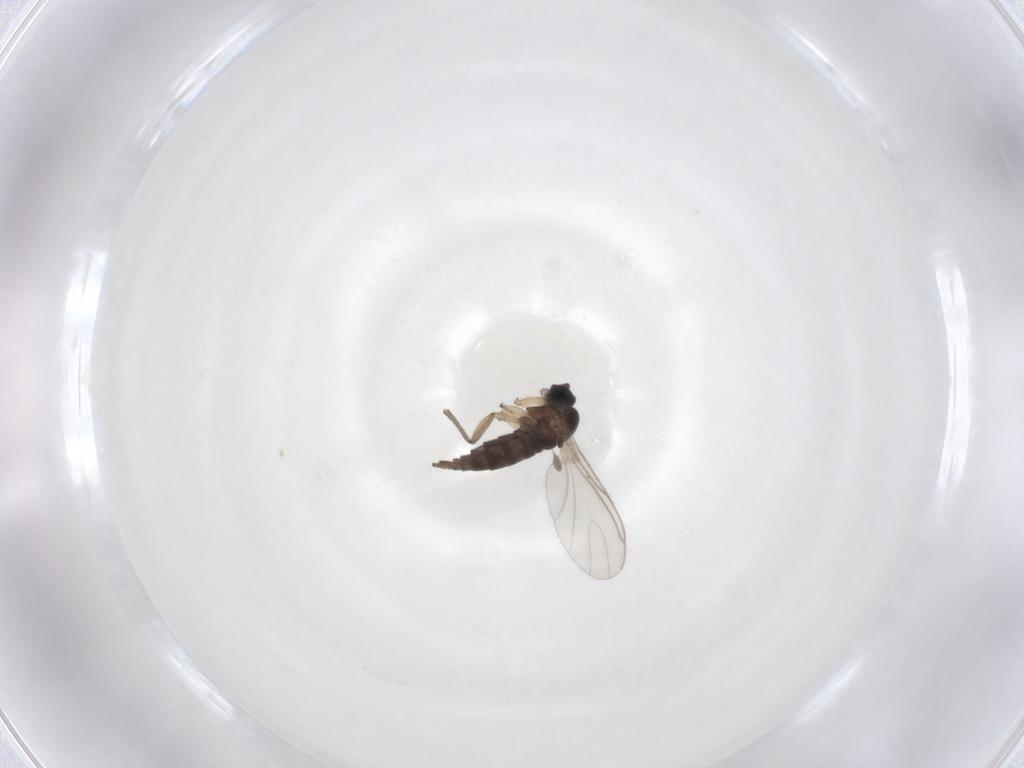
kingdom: Animalia
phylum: Arthropoda
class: Insecta
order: Diptera
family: Sciaridae
